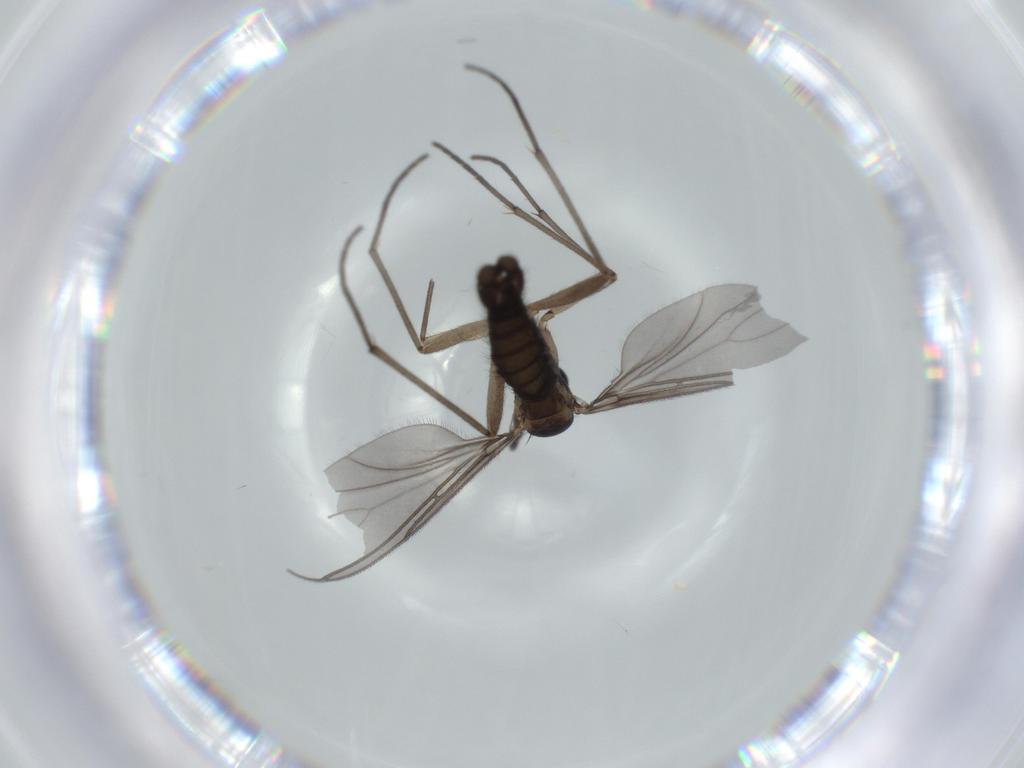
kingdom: Animalia
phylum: Arthropoda
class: Insecta
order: Diptera
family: Sciaridae
